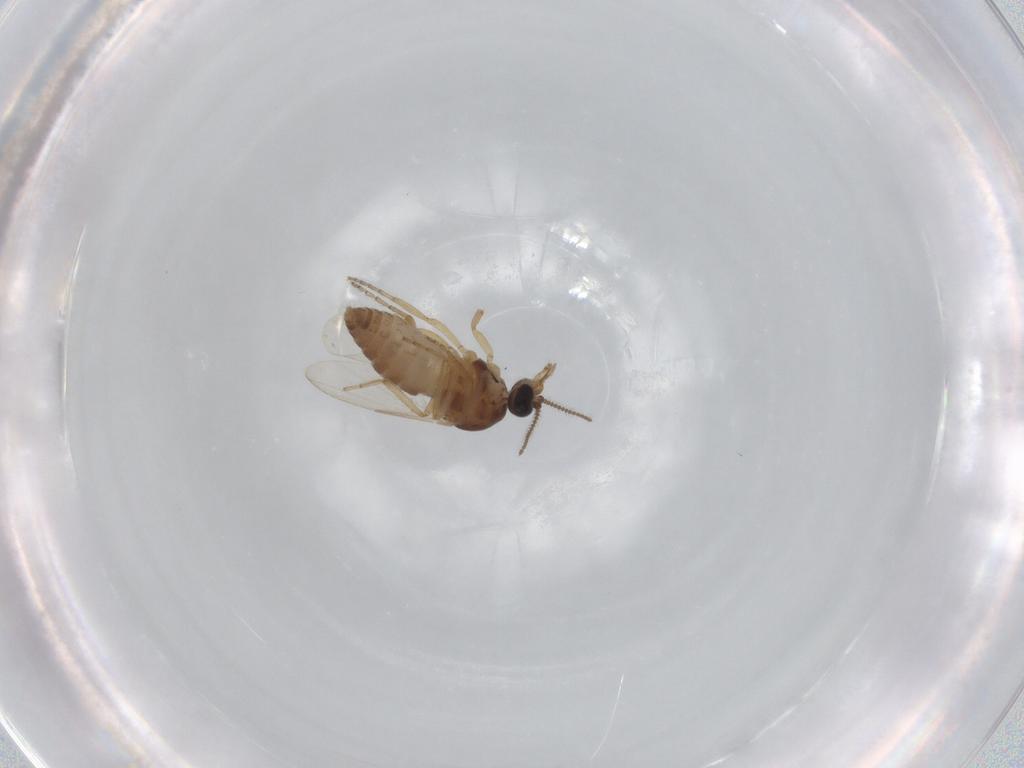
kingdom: Animalia
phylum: Arthropoda
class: Insecta
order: Diptera
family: Ceratopogonidae
